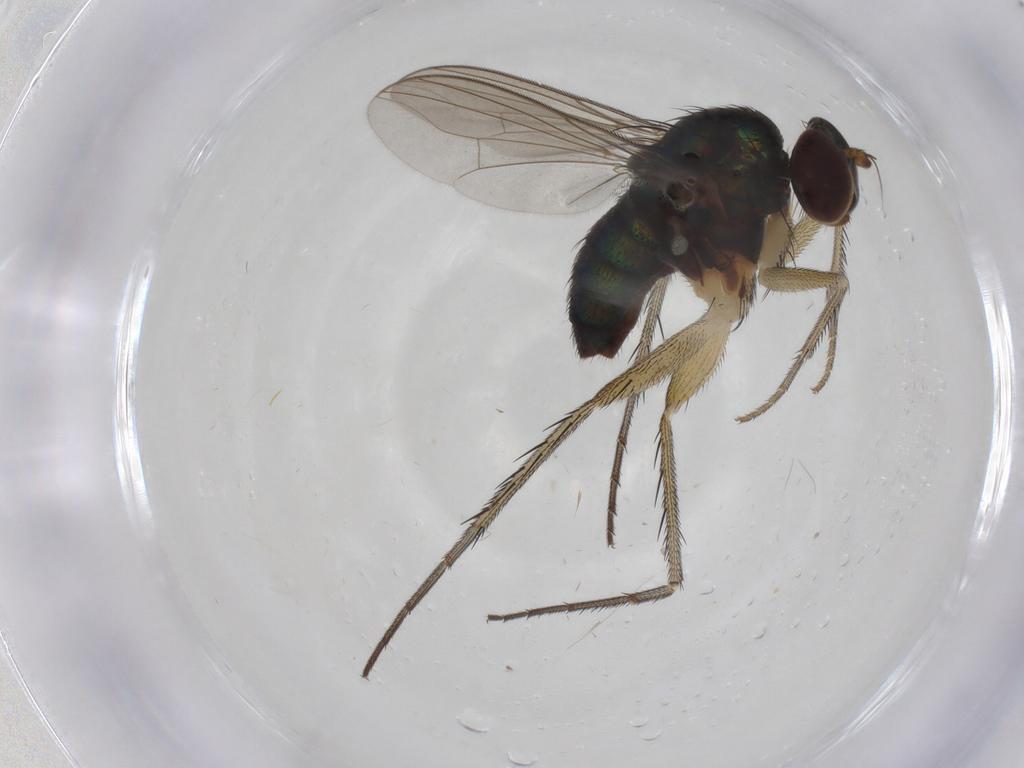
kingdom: Animalia
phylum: Arthropoda
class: Insecta
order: Diptera
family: Dolichopodidae
